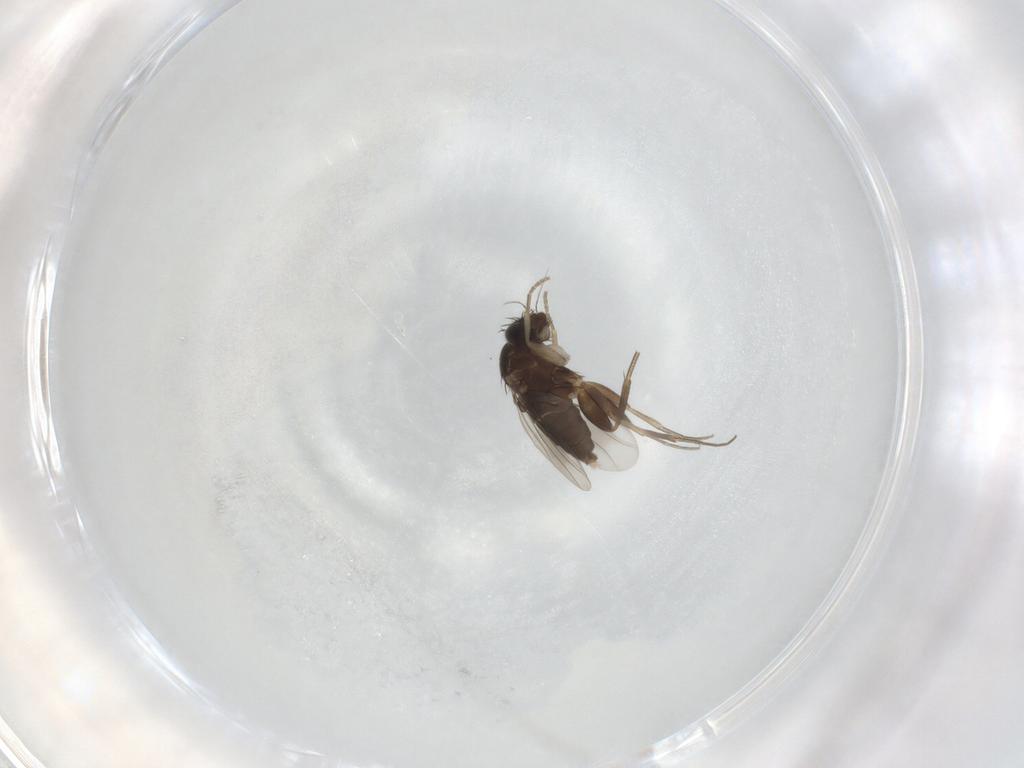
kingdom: Animalia
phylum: Arthropoda
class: Insecta
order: Diptera
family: Phoridae
